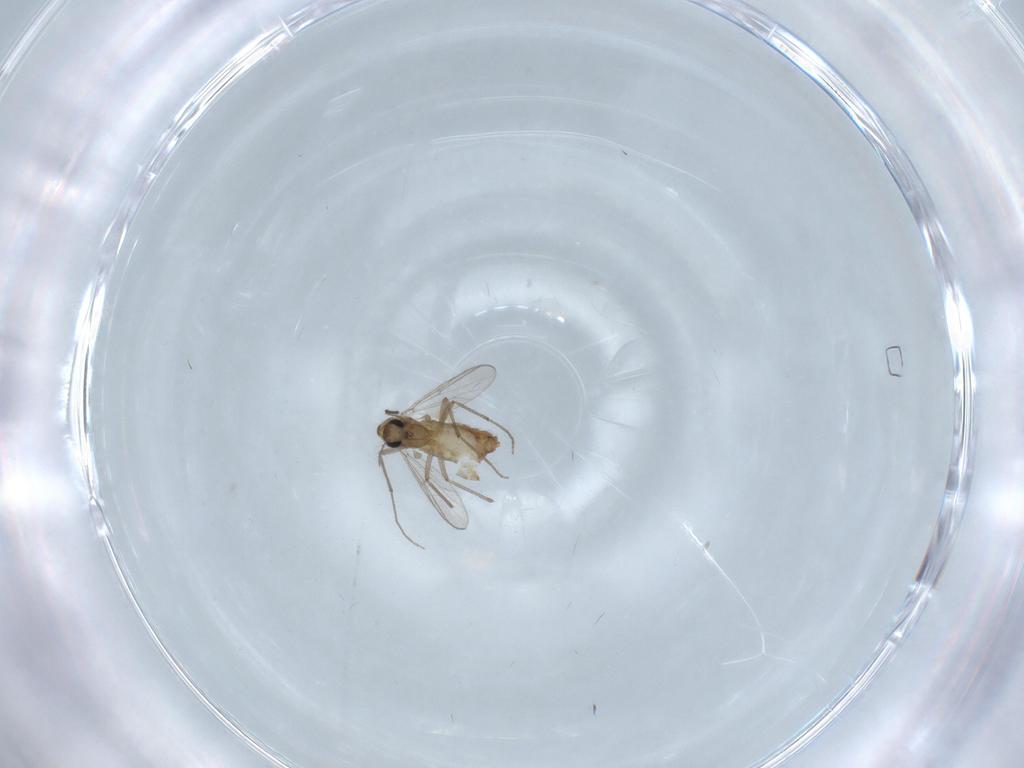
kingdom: Animalia
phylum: Arthropoda
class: Insecta
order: Diptera
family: Chironomidae
